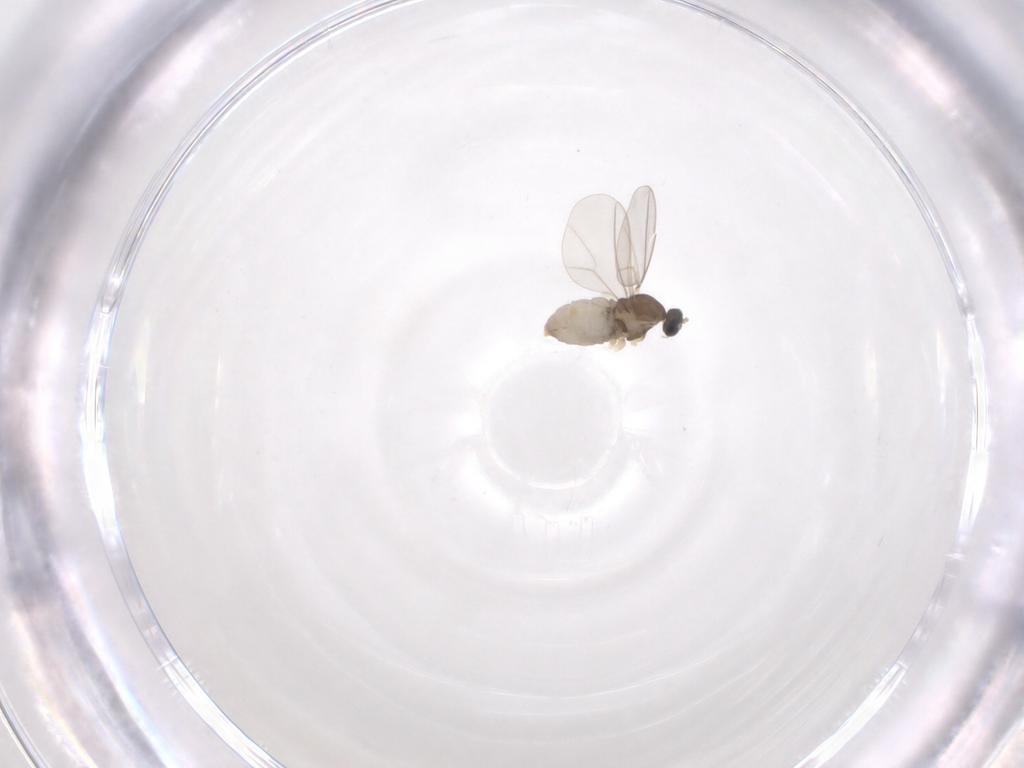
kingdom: Animalia
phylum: Arthropoda
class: Insecta
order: Diptera
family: Cecidomyiidae
